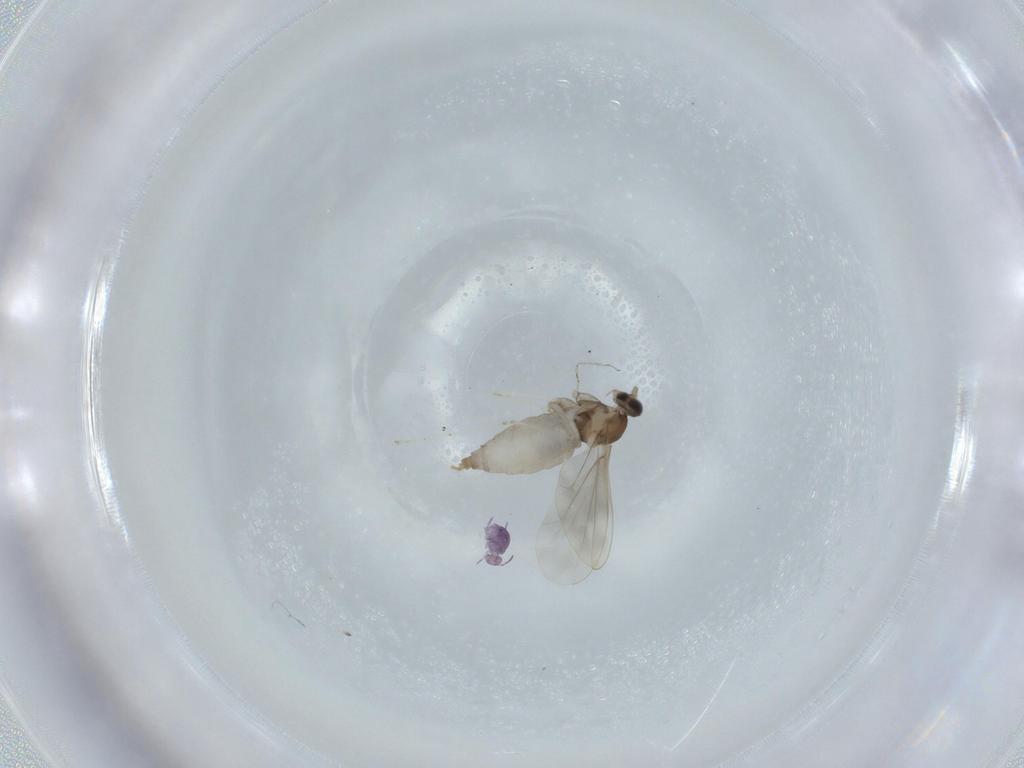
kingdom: Animalia
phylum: Arthropoda
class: Insecta
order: Diptera
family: Cecidomyiidae
